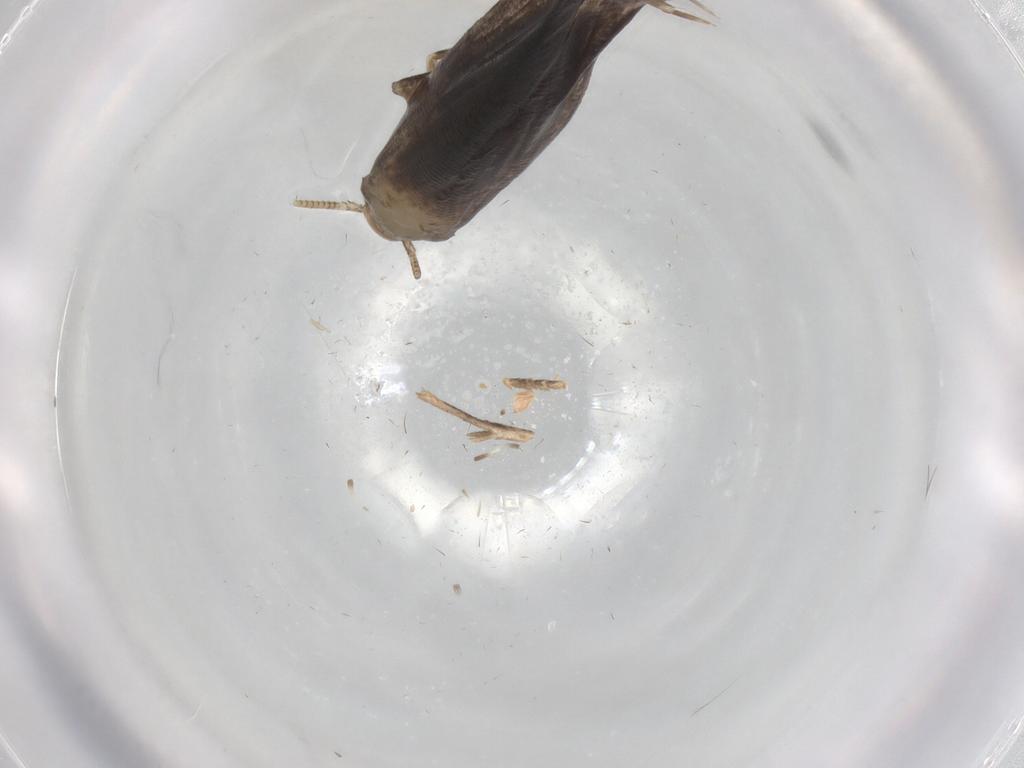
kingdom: Animalia
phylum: Arthropoda
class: Insecta
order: Lepidoptera
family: Tineidae
